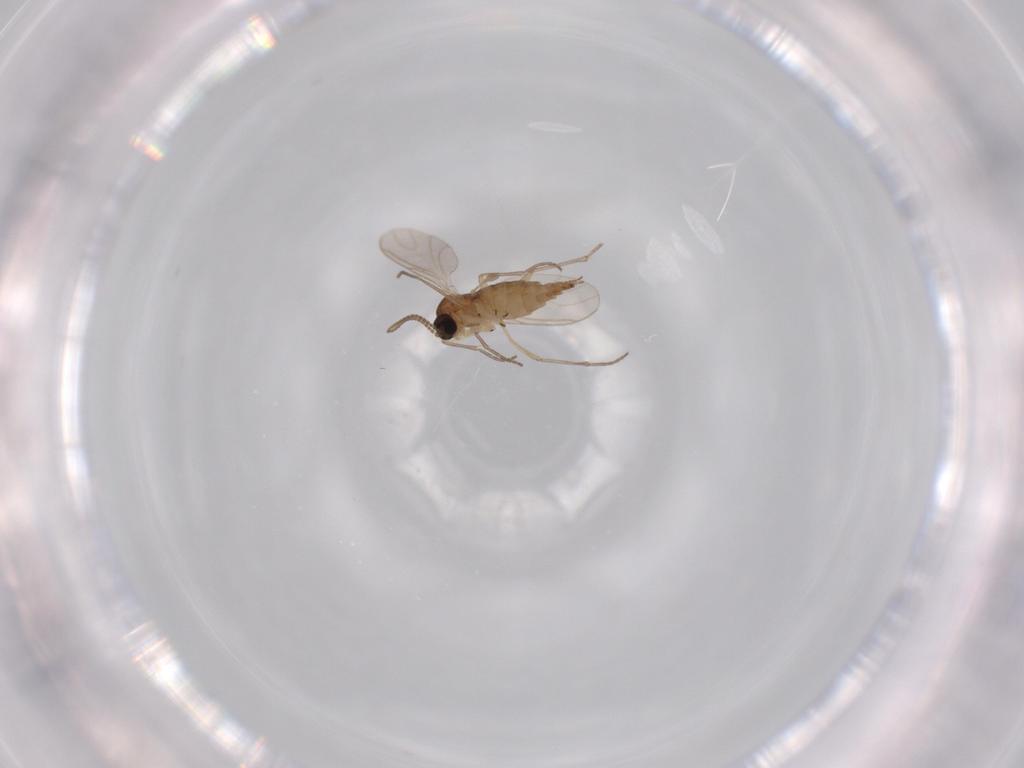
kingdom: Animalia
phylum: Arthropoda
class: Insecta
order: Diptera
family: Sciaridae
